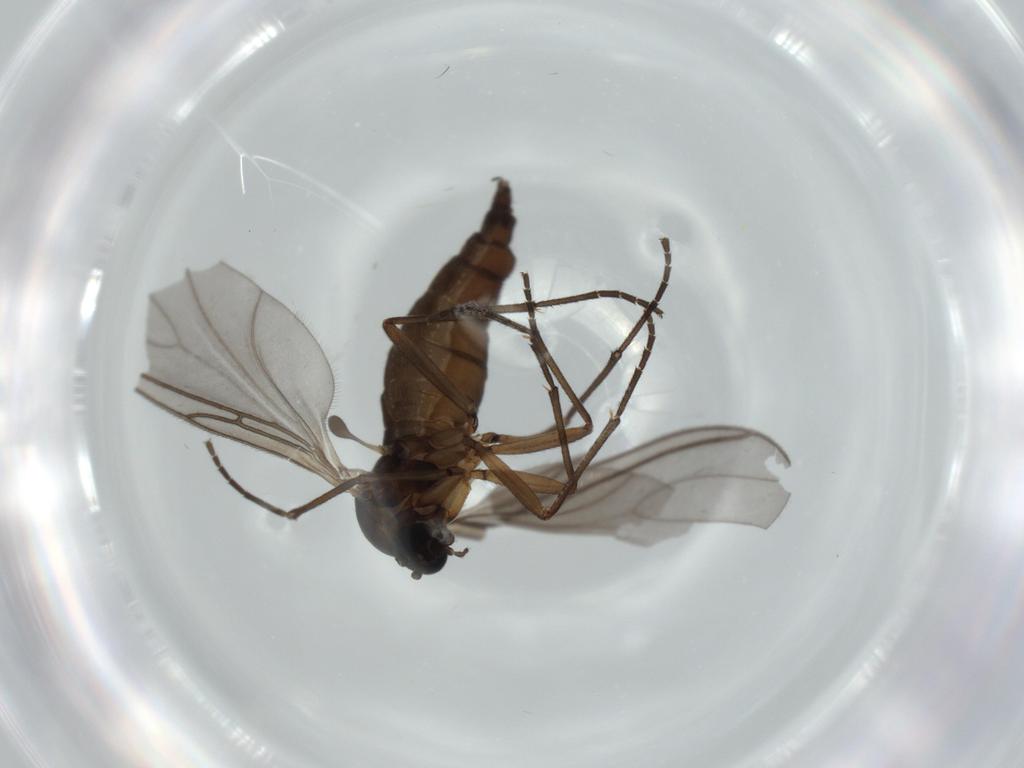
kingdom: Animalia
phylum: Arthropoda
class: Insecta
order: Diptera
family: Sciaridae
